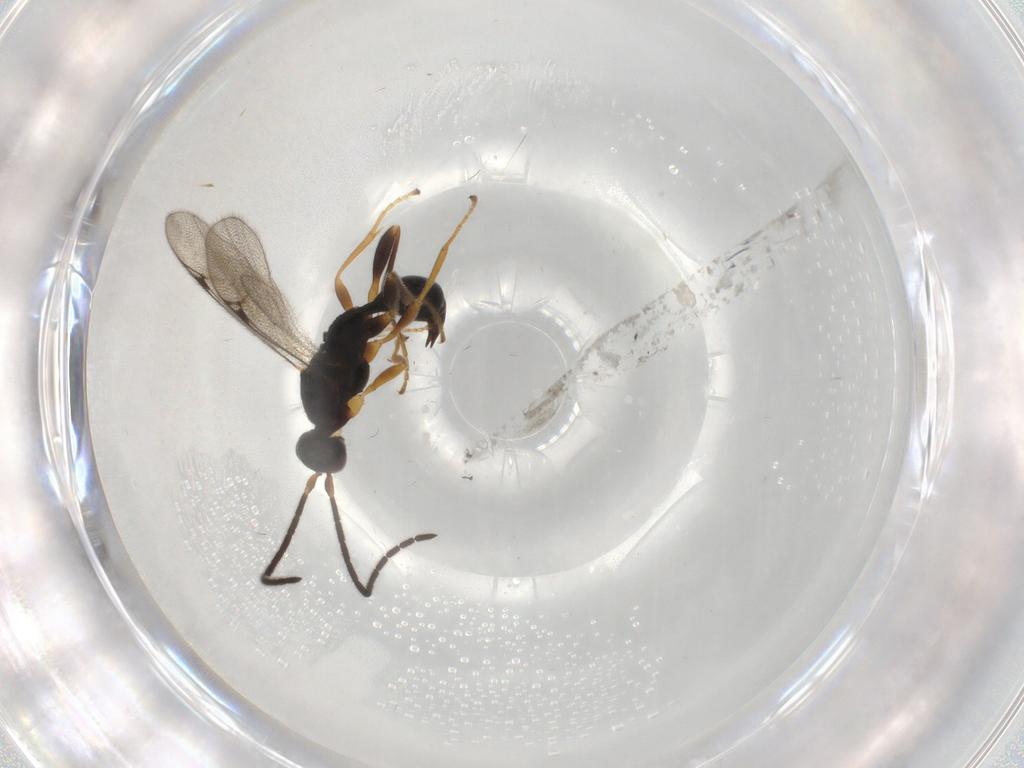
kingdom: Animalia
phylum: Arthropoda
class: Insecta
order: Hymenoptera
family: Proctotrupidae
